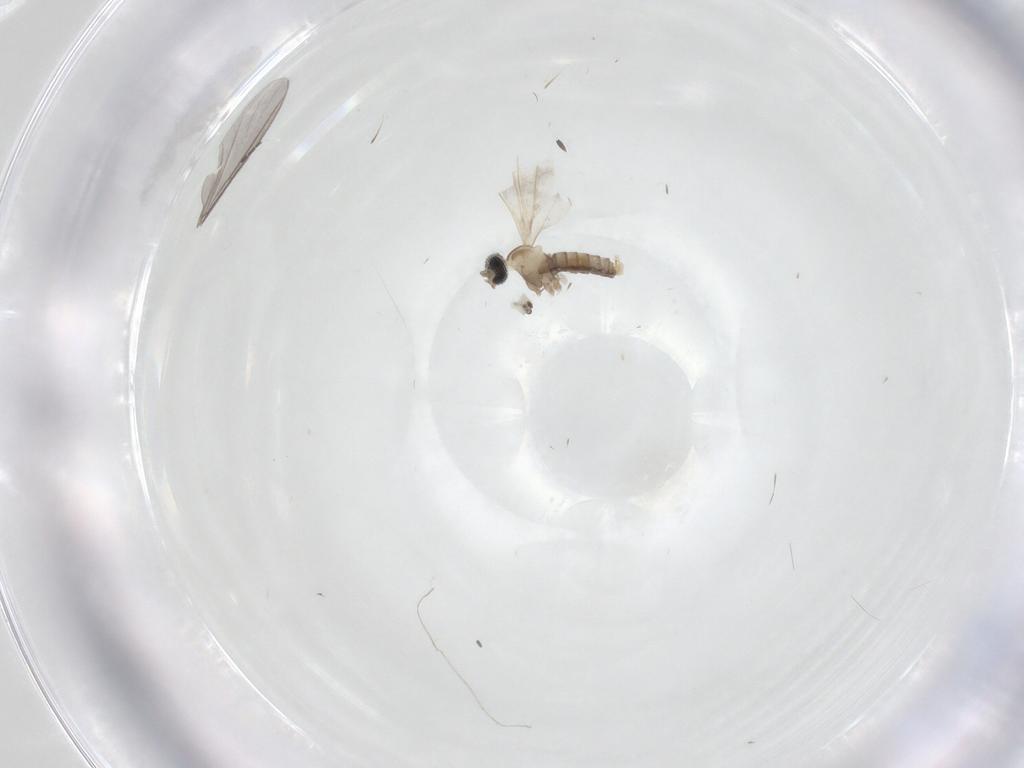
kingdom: Animalia
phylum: Arthropoda
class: Insecta
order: Diptera
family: Cecidomyiidae
